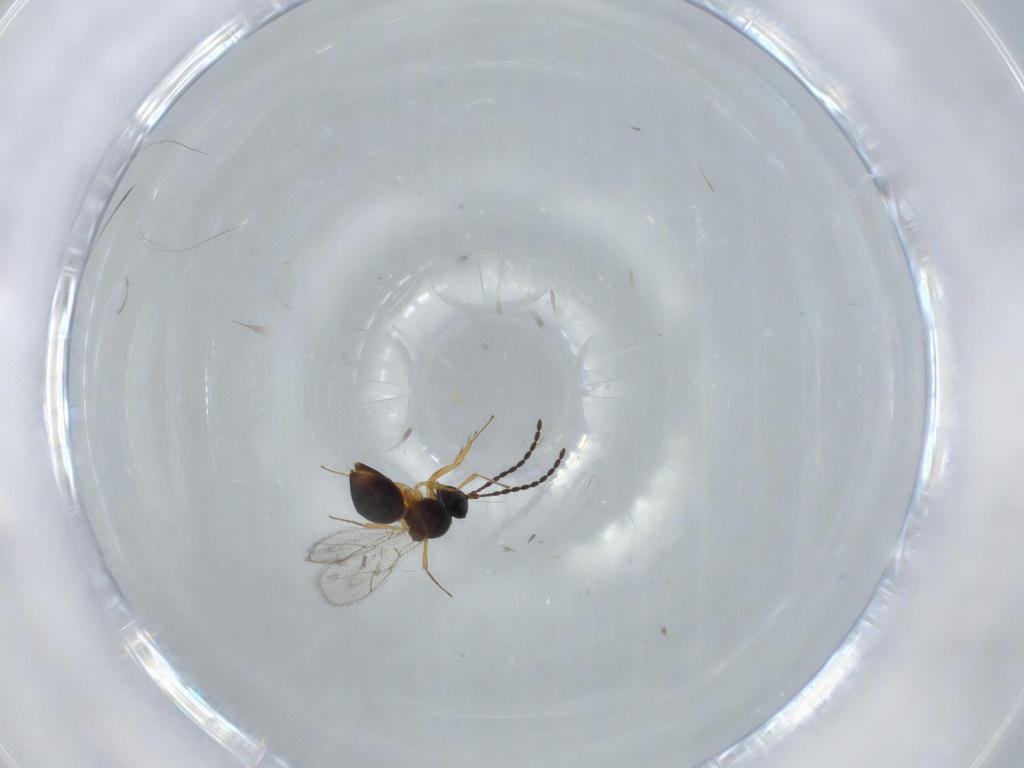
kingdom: Animalia
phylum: Arthropoda
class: Insecta
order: Hymenoptera
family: Figitidae
